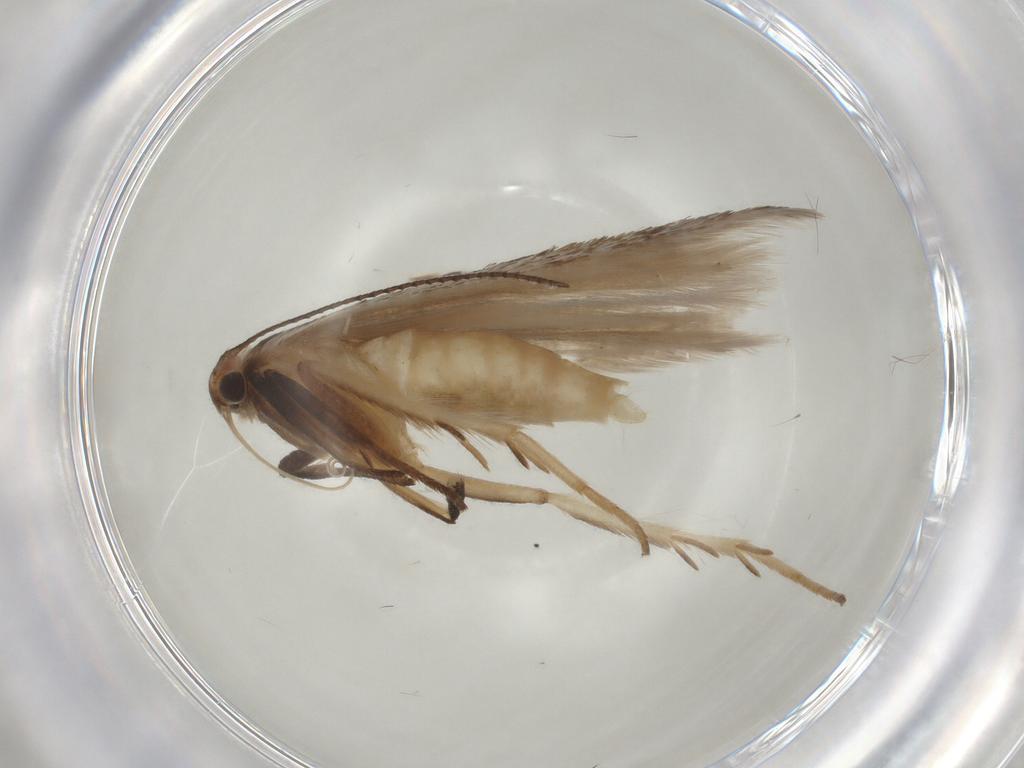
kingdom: Animalia
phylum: Arthropoda
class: Insecta
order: Lepidoptera
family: Gelechiidae
